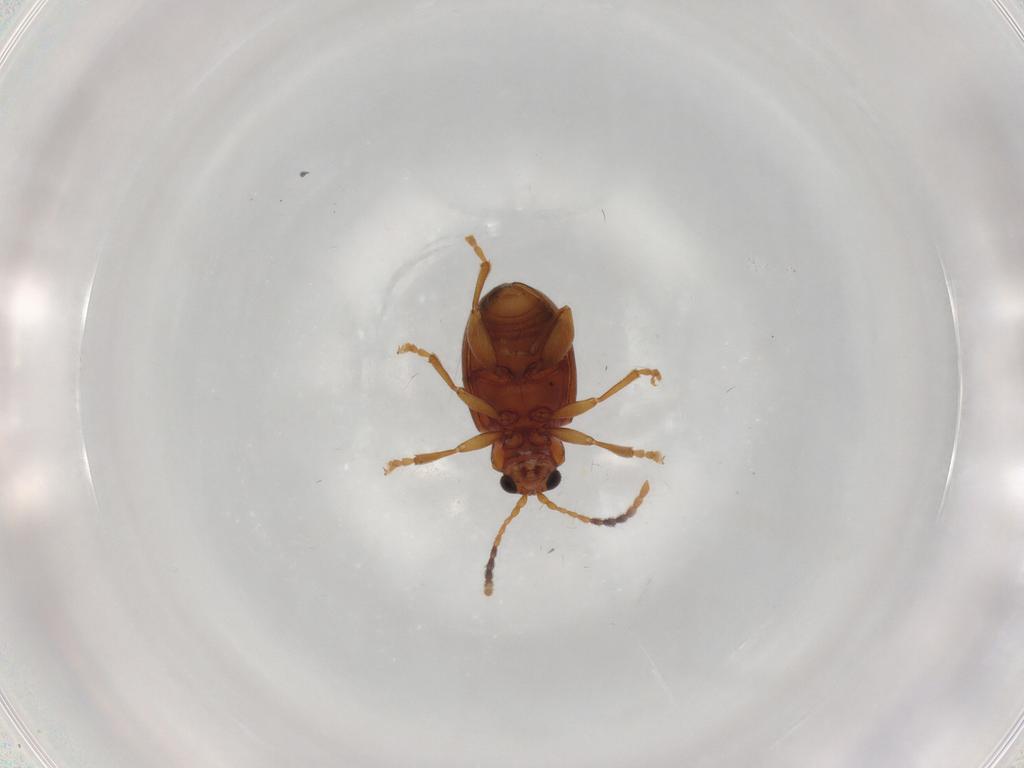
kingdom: Animalia
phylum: Arthropoda
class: Insecta
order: Coleoptera
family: Chrysomelidae
